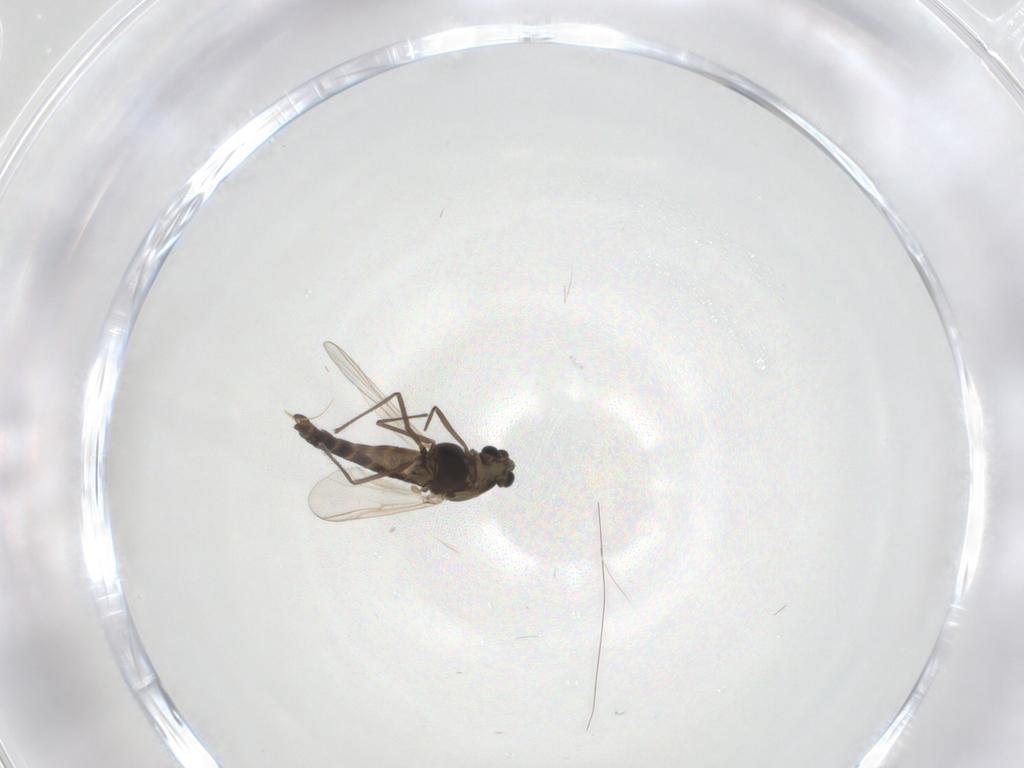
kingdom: Animalia
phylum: Arthropoda
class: Insecta
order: Diptera
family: Chironomidae
